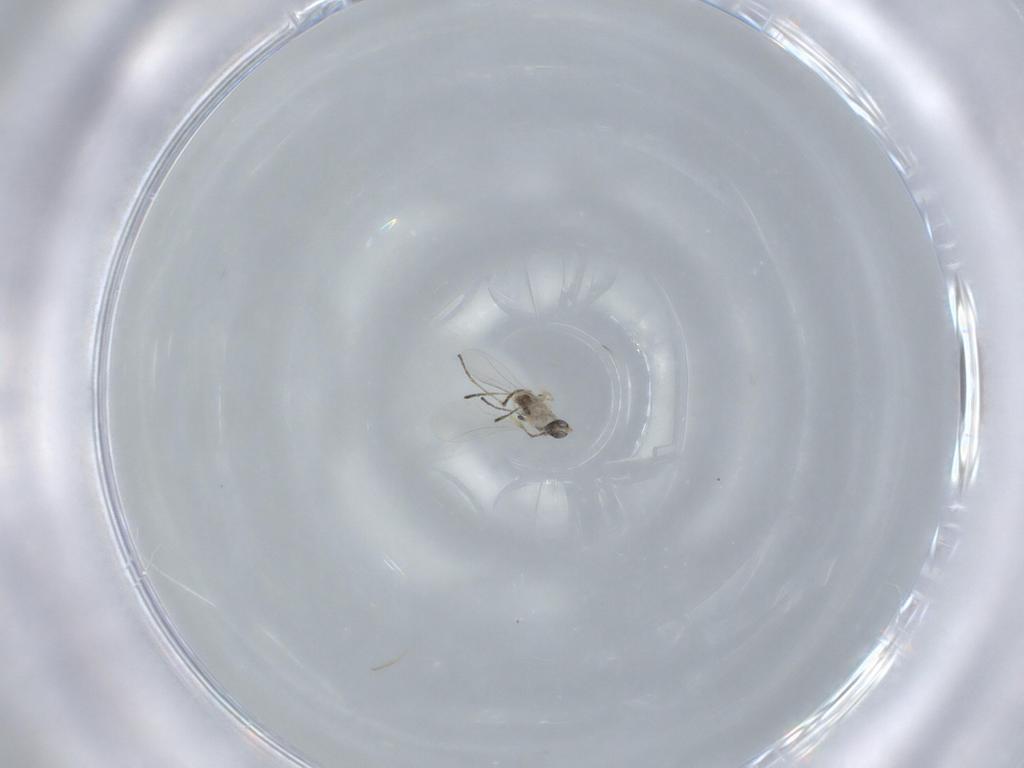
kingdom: Animalia
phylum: Arthropoda
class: Insecta
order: Diptera
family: Cecidomyiidae
